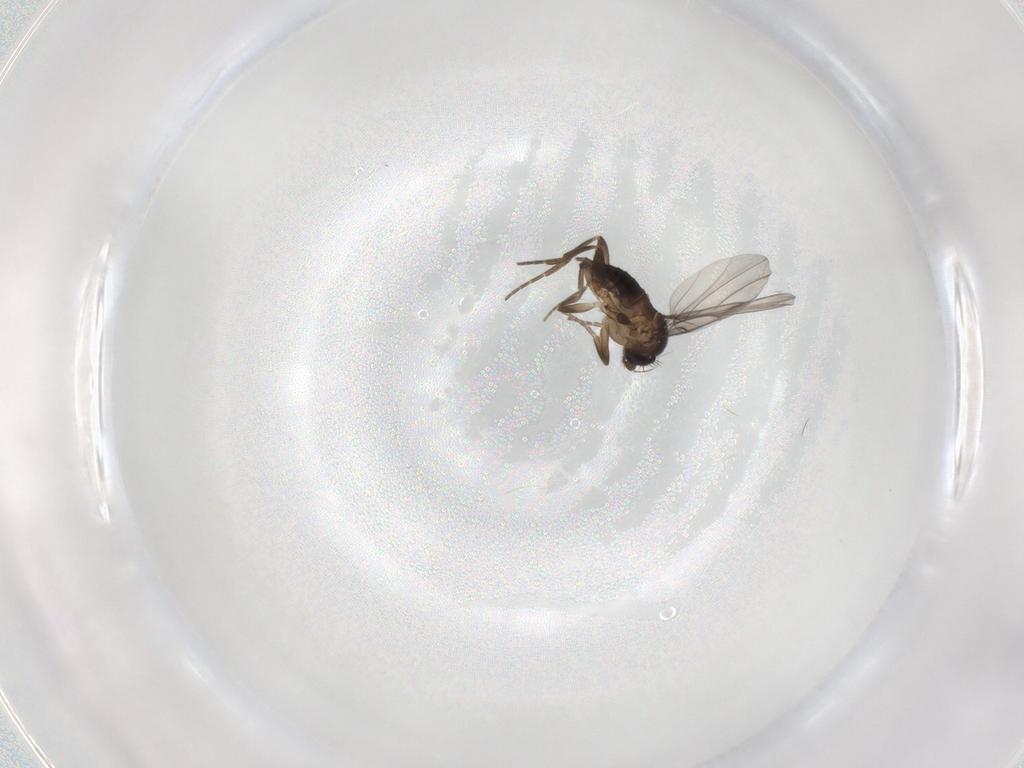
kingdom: Animalia
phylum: Arthropoda
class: Insecta
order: Diptera
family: Phoridae
